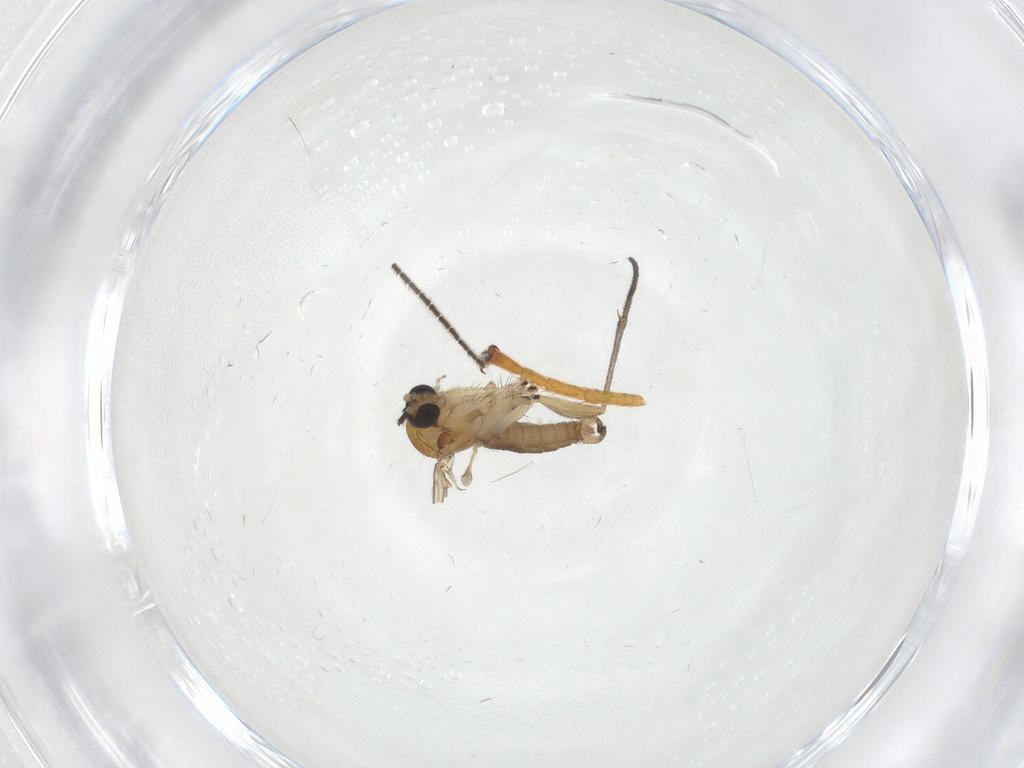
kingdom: Animalia
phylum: Arthropoda
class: Insecta
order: Diptera
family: Sciaridae
